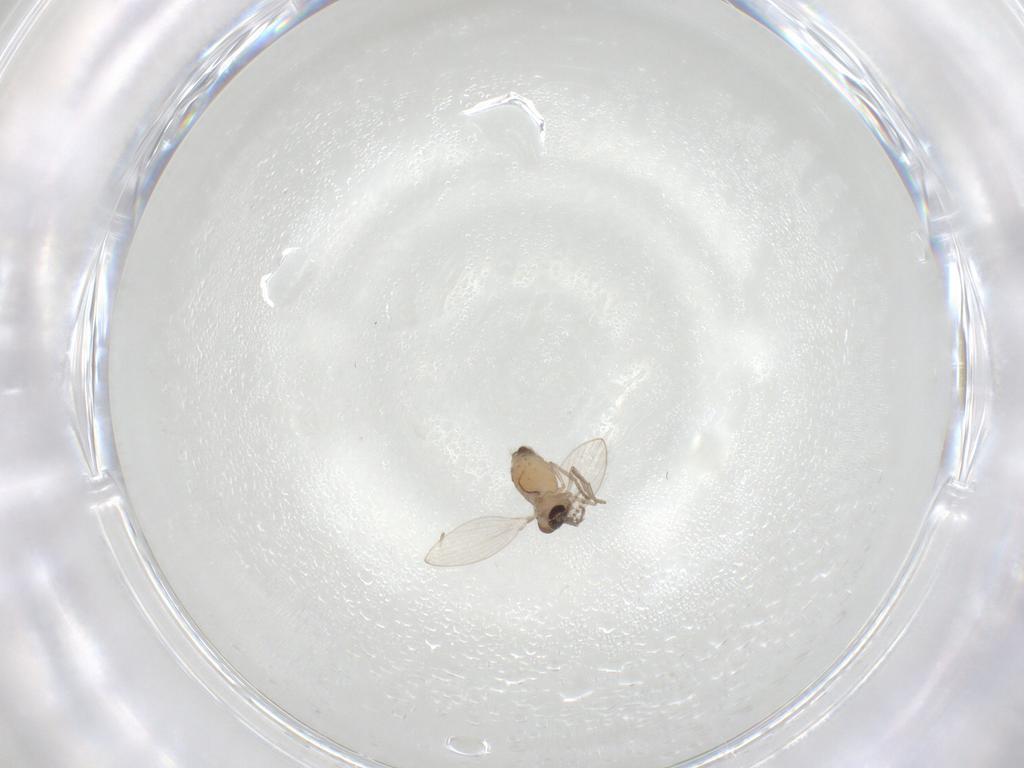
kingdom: Animalia
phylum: Arthropoda
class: Insecta
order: Diptera
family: Psychodidae
